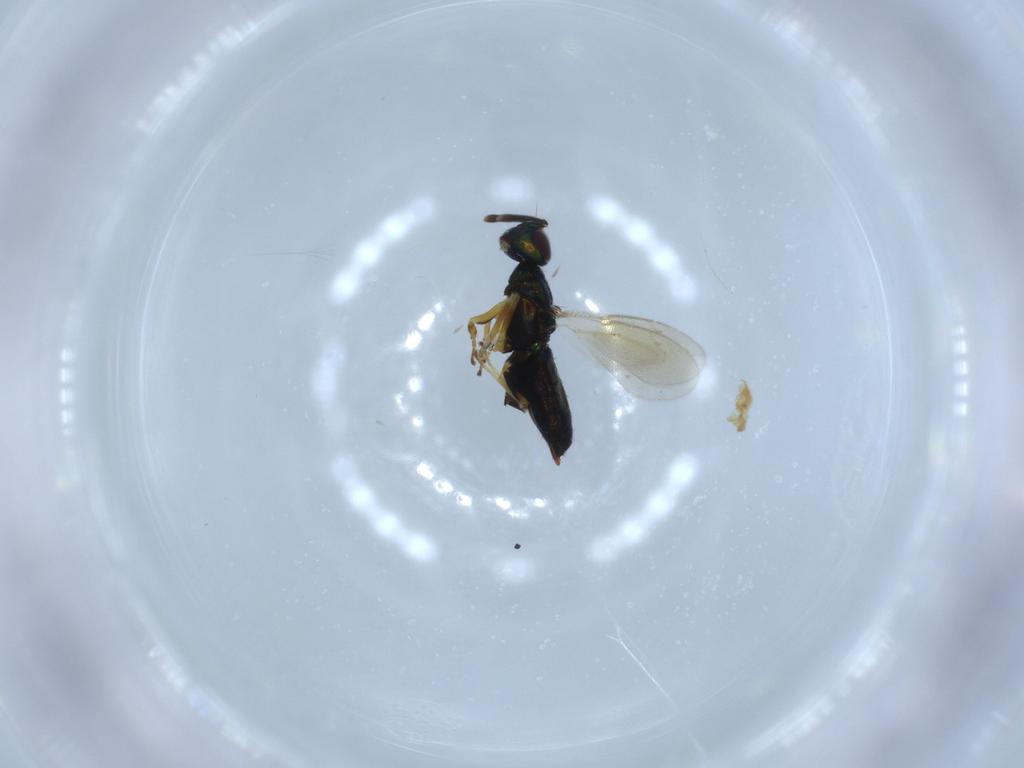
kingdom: Animalia
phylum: Arthropoda
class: Insecta
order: Hymenoptera
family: Eupelmidae
